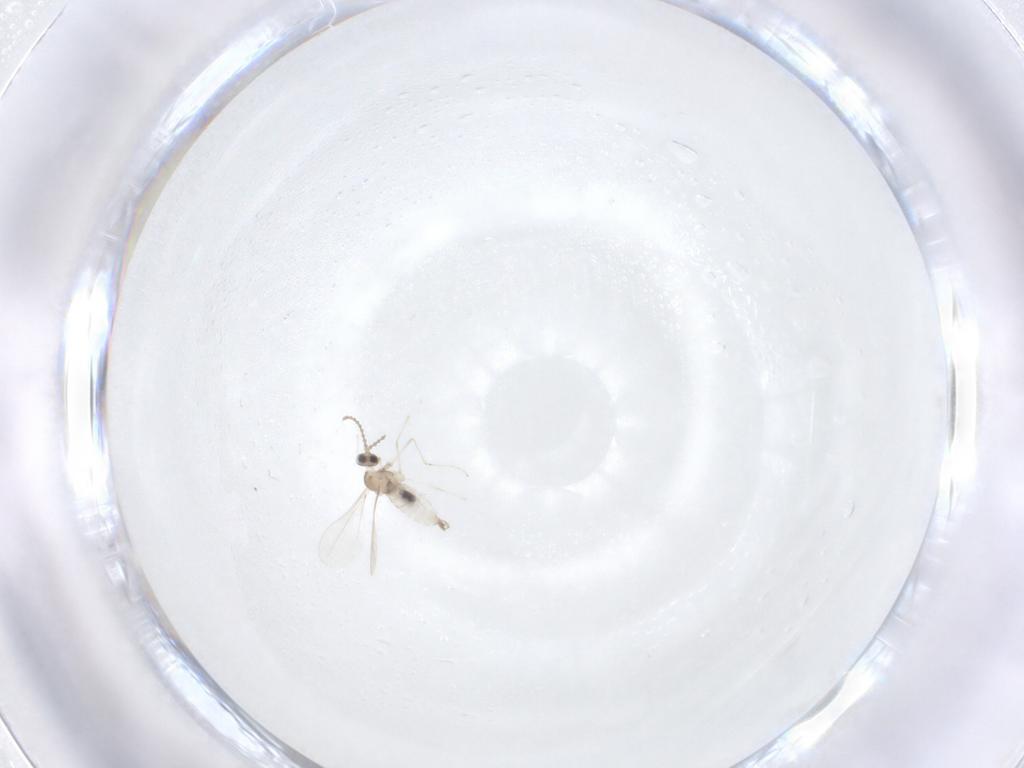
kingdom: Animalia
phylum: Arthropoda
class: Insecta
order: Diptera
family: Cecidomyiidae
